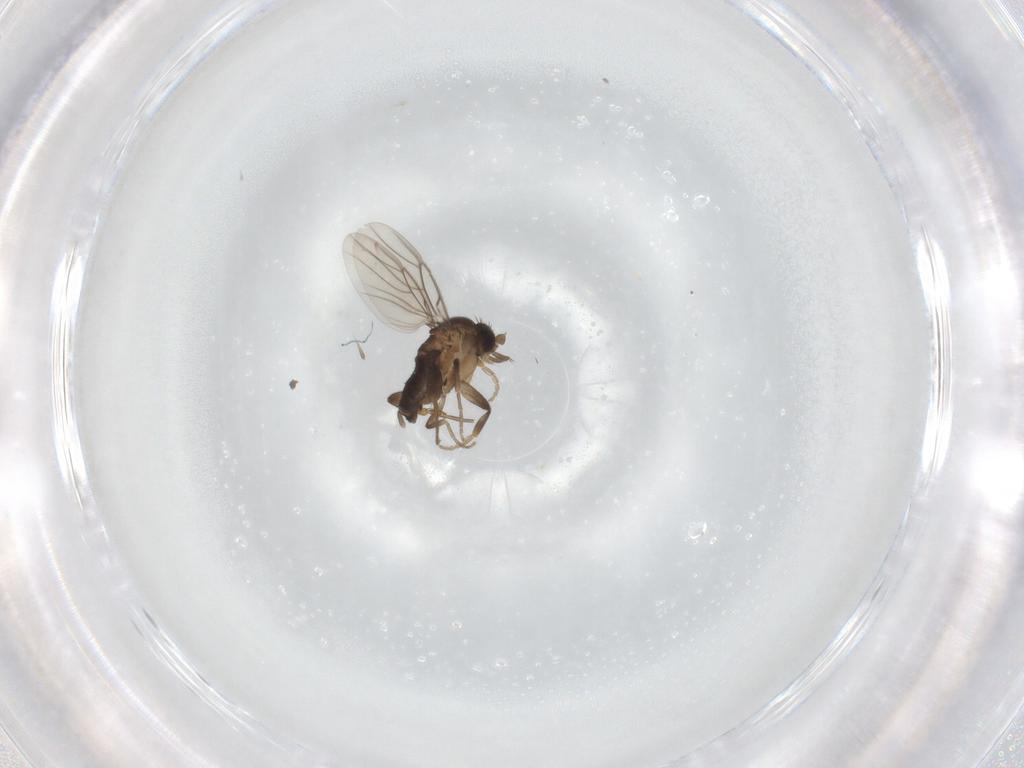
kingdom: Animalia
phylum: Arthropoda
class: Insecta
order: Diptera
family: Phoridae
